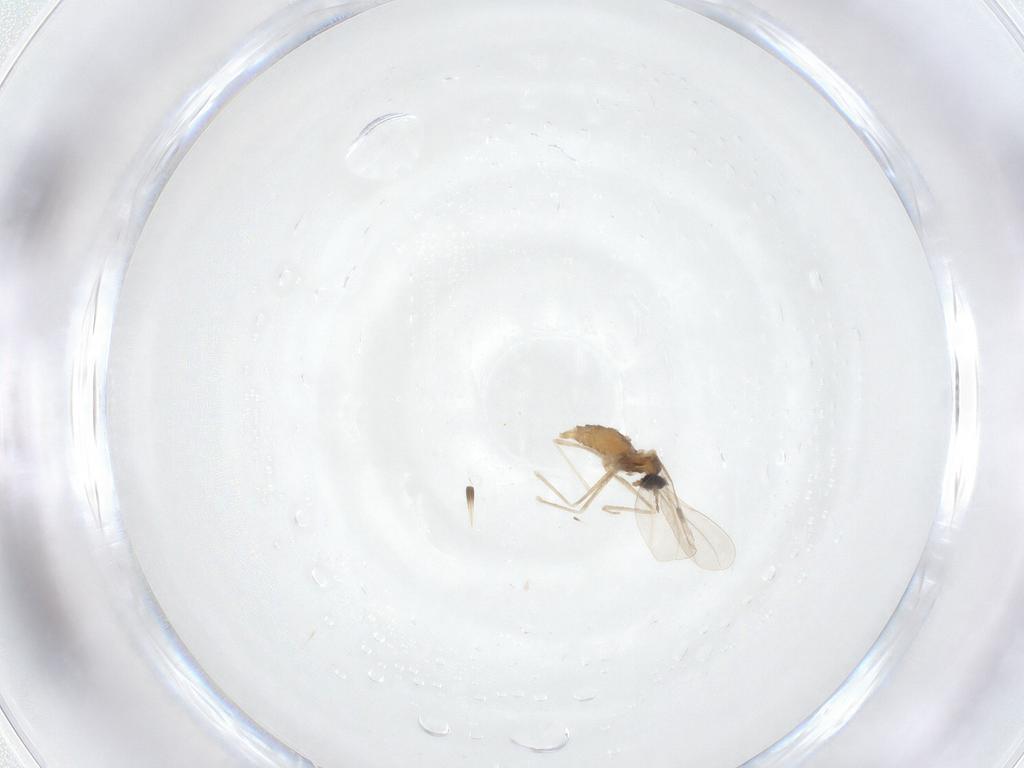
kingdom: Animalia
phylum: Arthropoda
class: Insecta
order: Diptera
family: Cecidomyiidae
